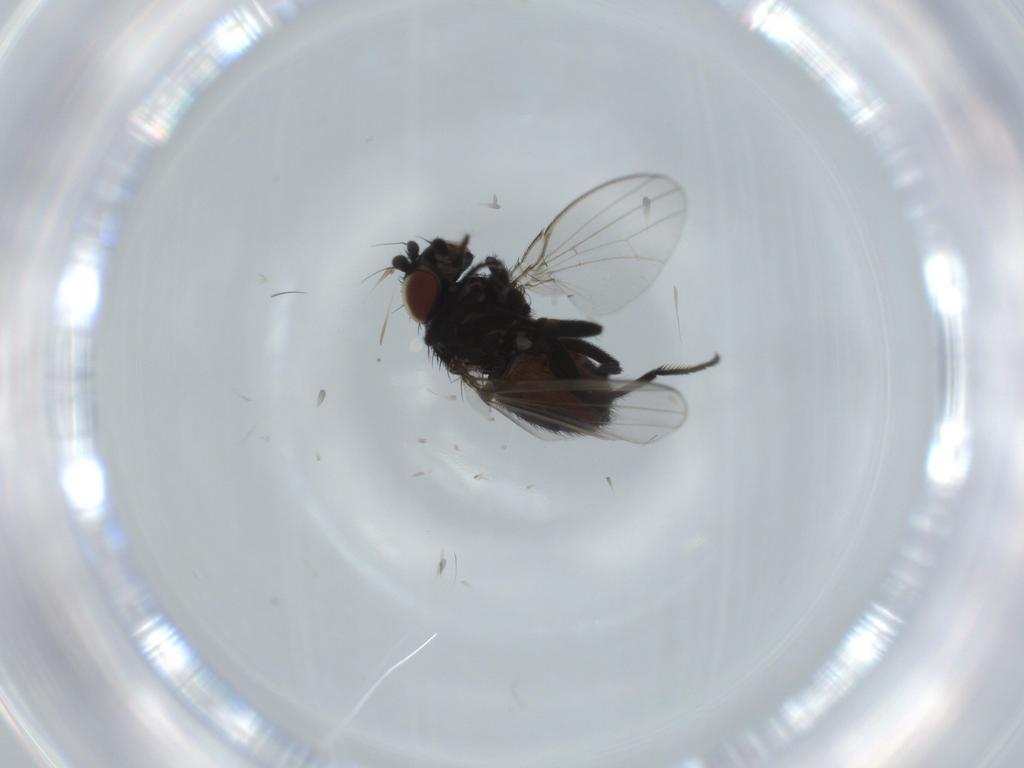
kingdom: Animalia
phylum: Arthropoda
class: Insecta
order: Diptera
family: Milichiidae
